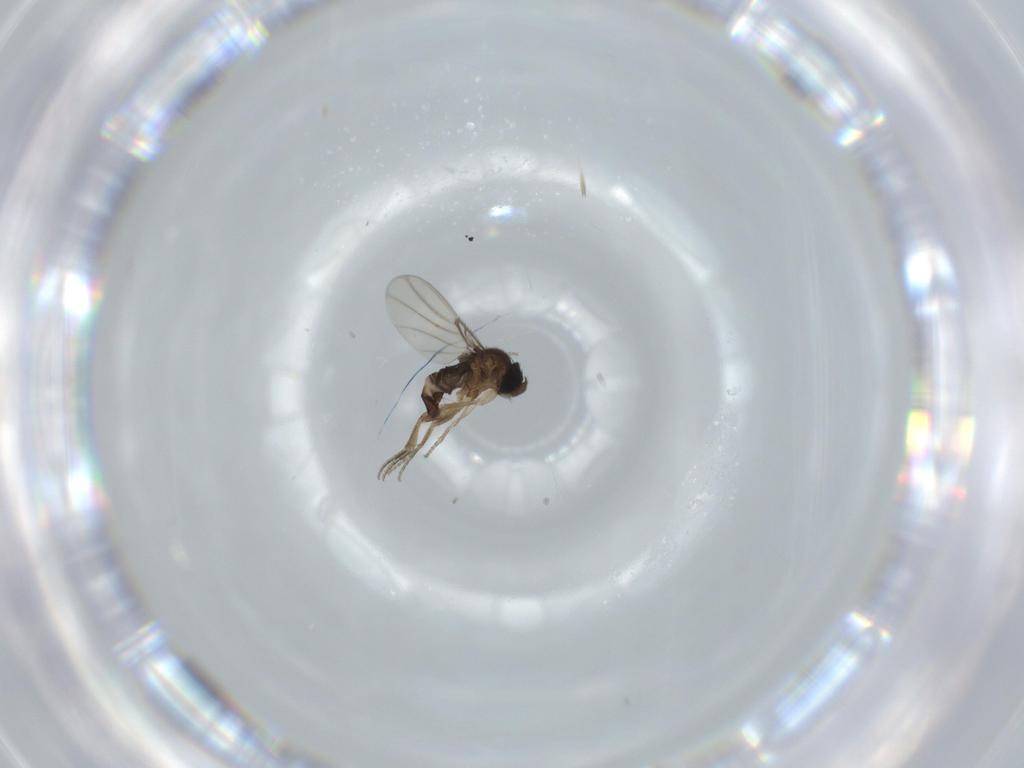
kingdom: Animalia
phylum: Arthropoda
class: Insecta
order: Diptera
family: Phoridae
